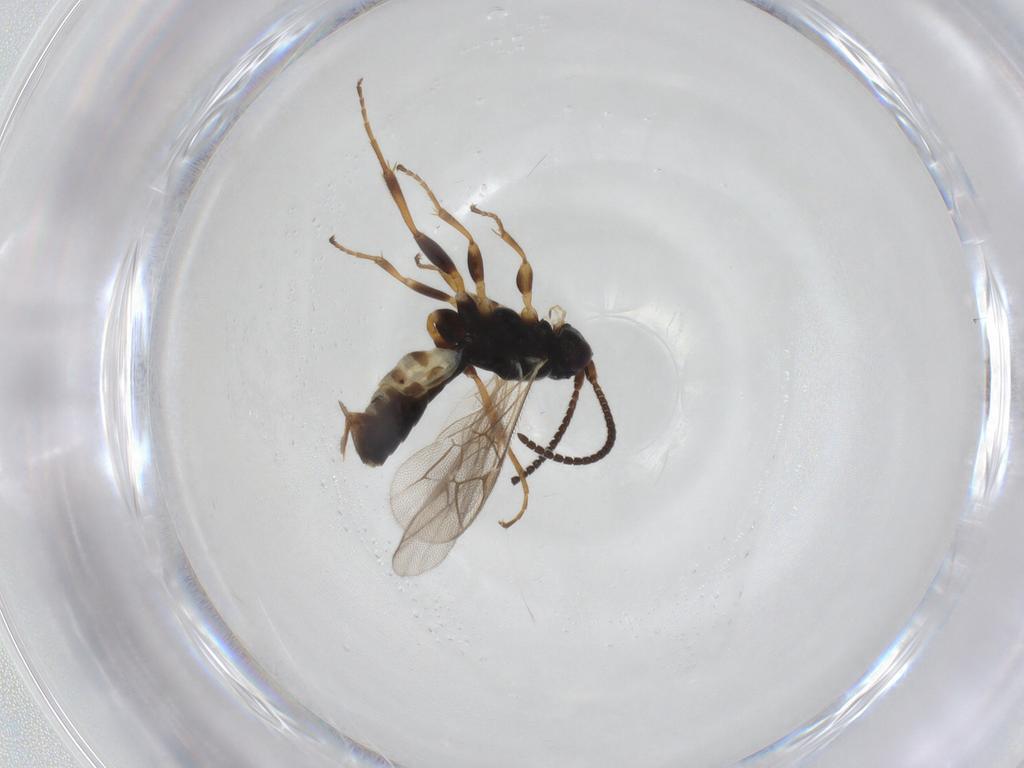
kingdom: Animalia
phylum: Arthropoda
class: Insecta
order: Hymenoptera
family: Ichneumonidae
